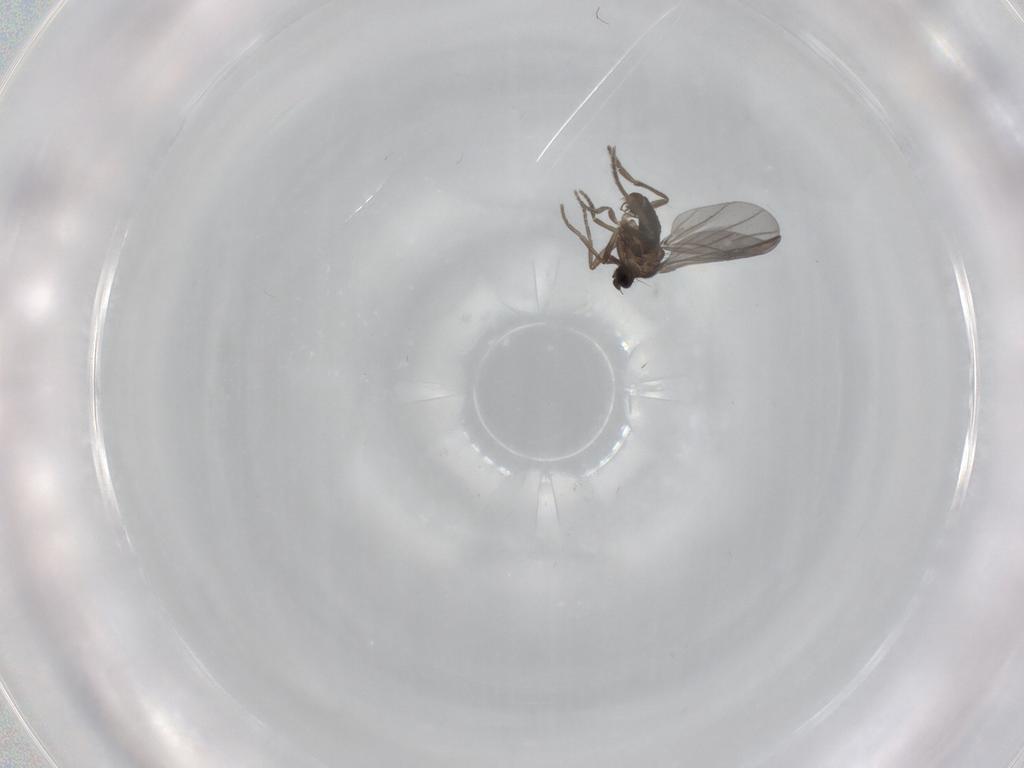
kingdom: Animalia
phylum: Arthropoda
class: Insecta
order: Diptera
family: Phoridae
